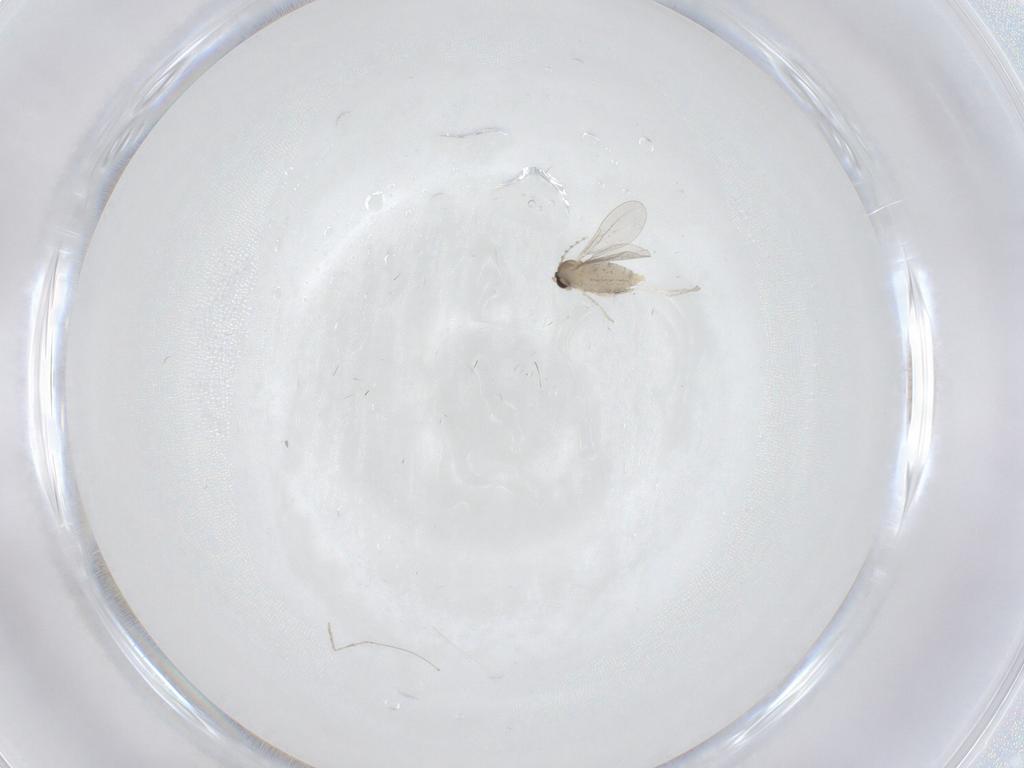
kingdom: Animalia
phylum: Arthropoda
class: Insecta
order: Diptera
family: Cecidomyiidae
